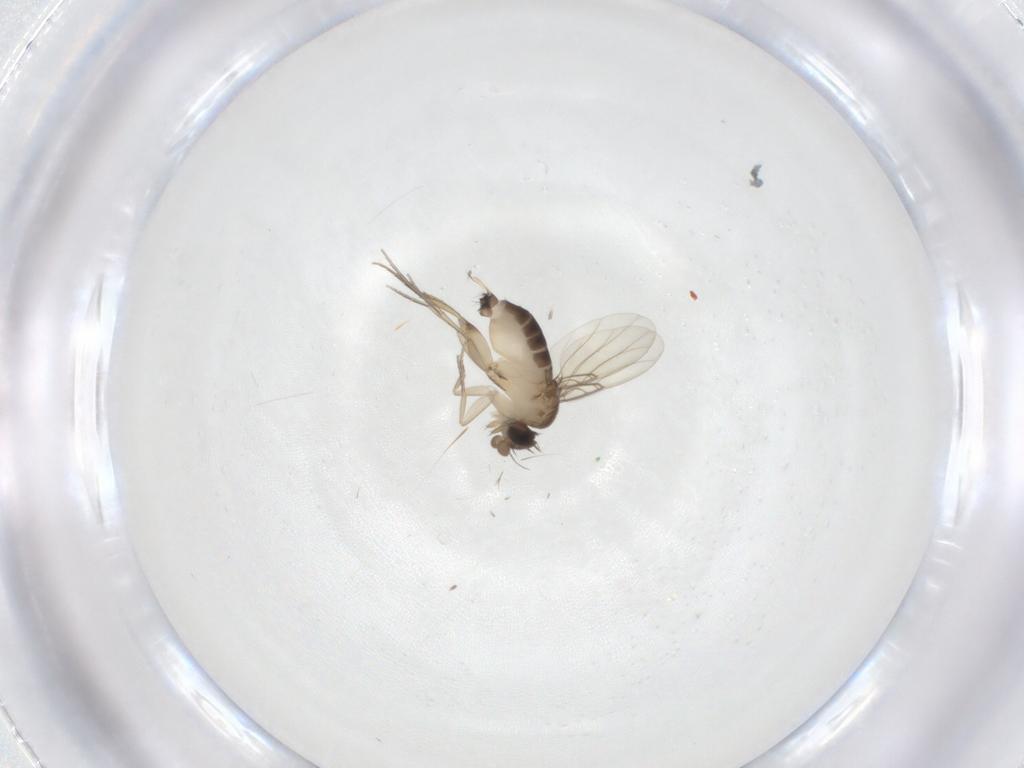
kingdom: Animalia
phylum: Arthropoda
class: Insecta
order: Diptera
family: Phoridae
